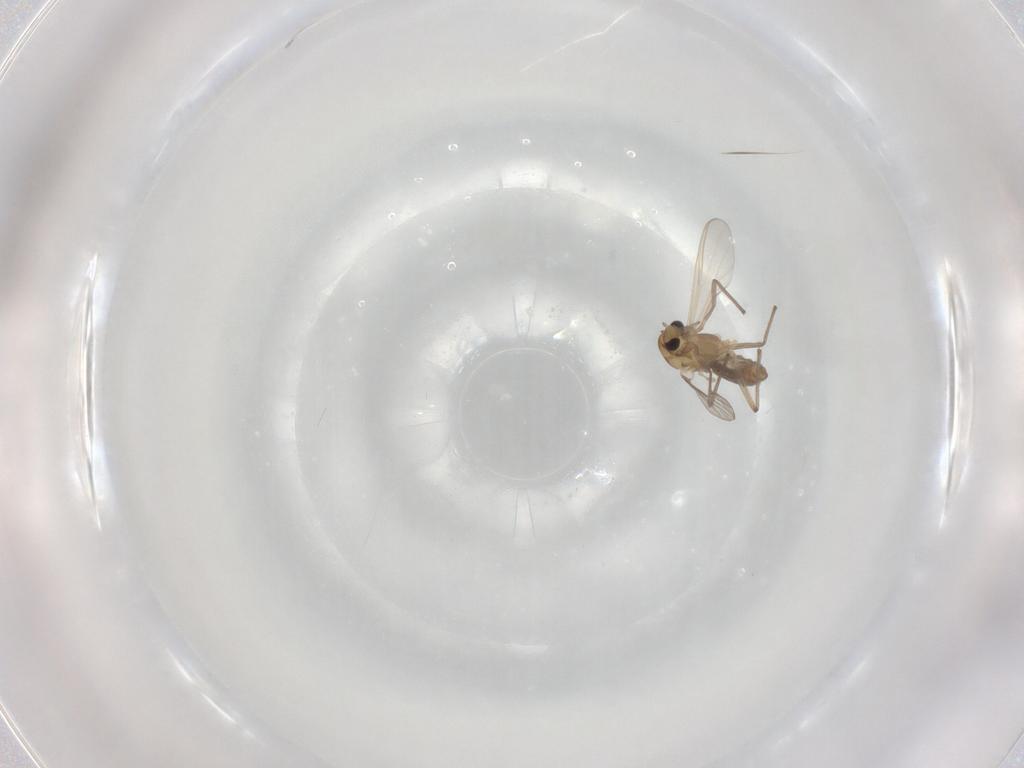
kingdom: Animalia
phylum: Arthropoda
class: Insecta
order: Diptera
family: Chironomidae
